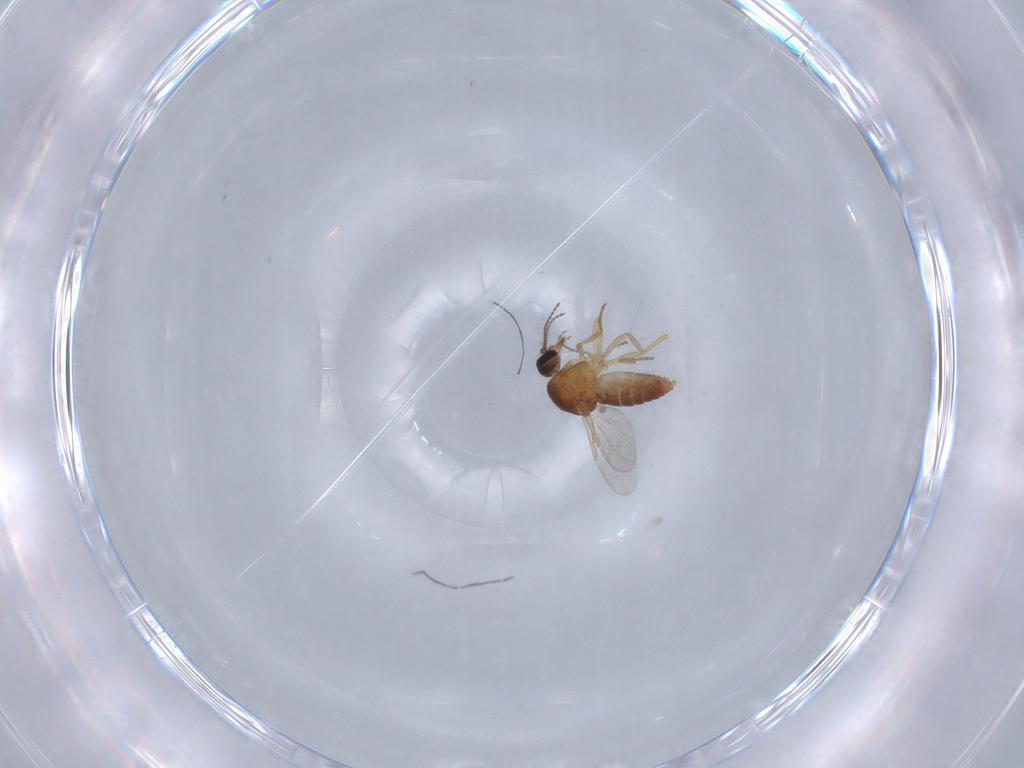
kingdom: Animalia
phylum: Arthropoda
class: Insecta
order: Diptera
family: Ceratopogonidae
